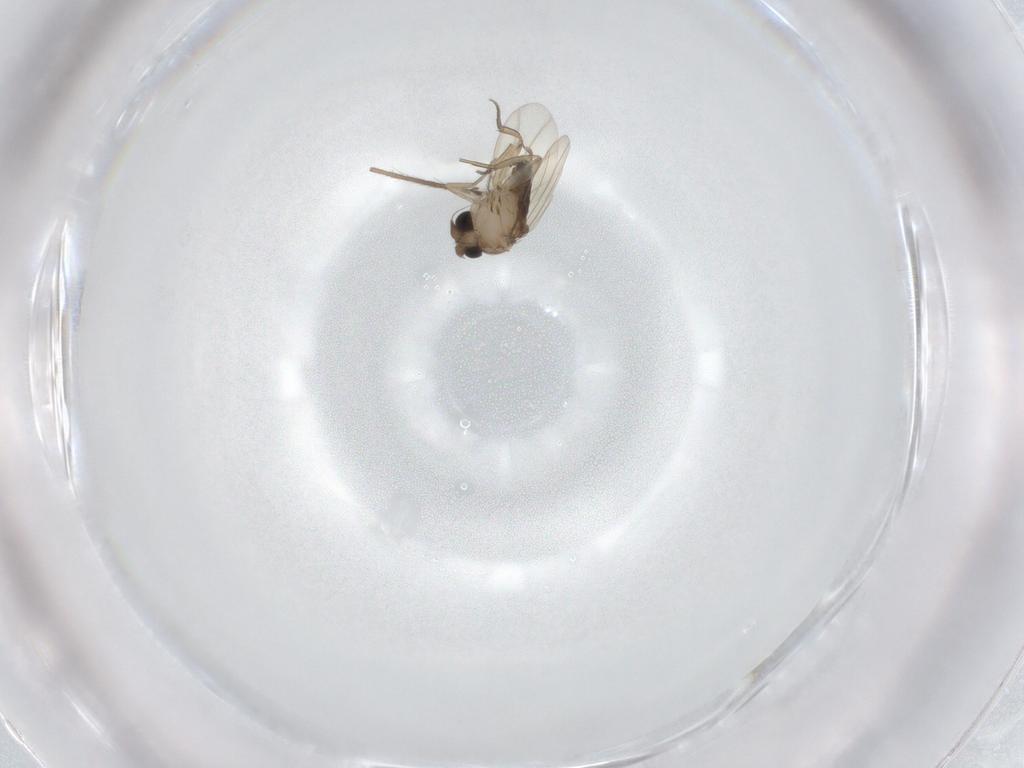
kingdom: Animalia
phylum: Arthropoda
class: Insecta
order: Diptera
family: Phoridae
